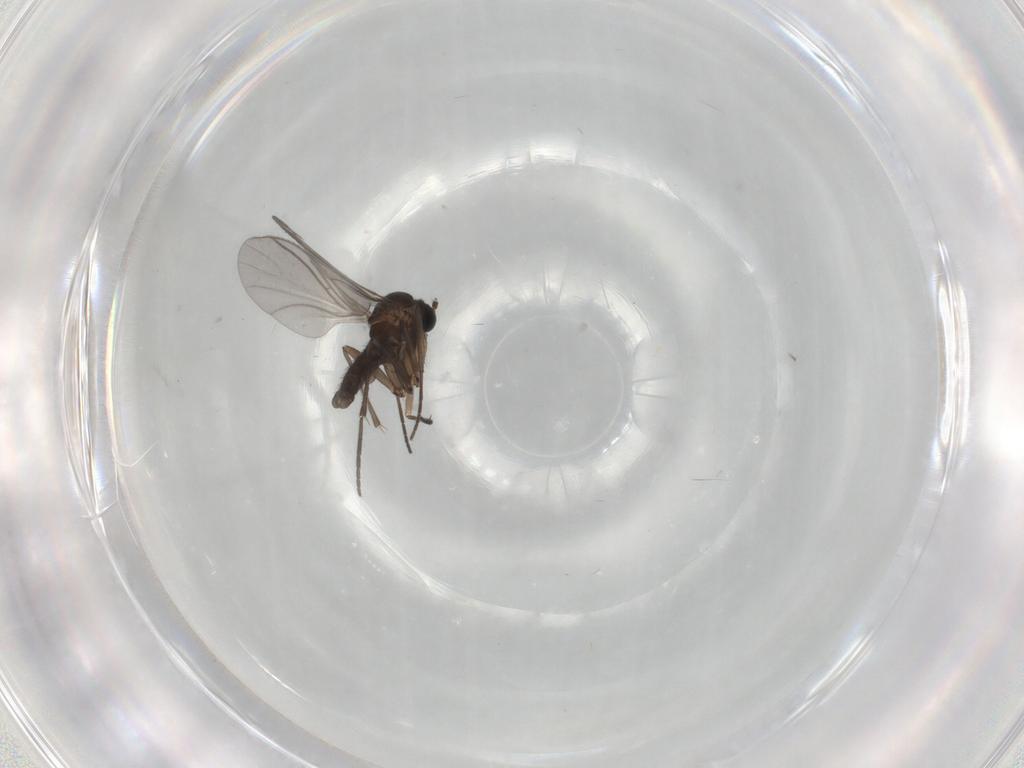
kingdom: Animalia
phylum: Arthropoda
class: Insecta
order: Diptera
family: Sciaridae
